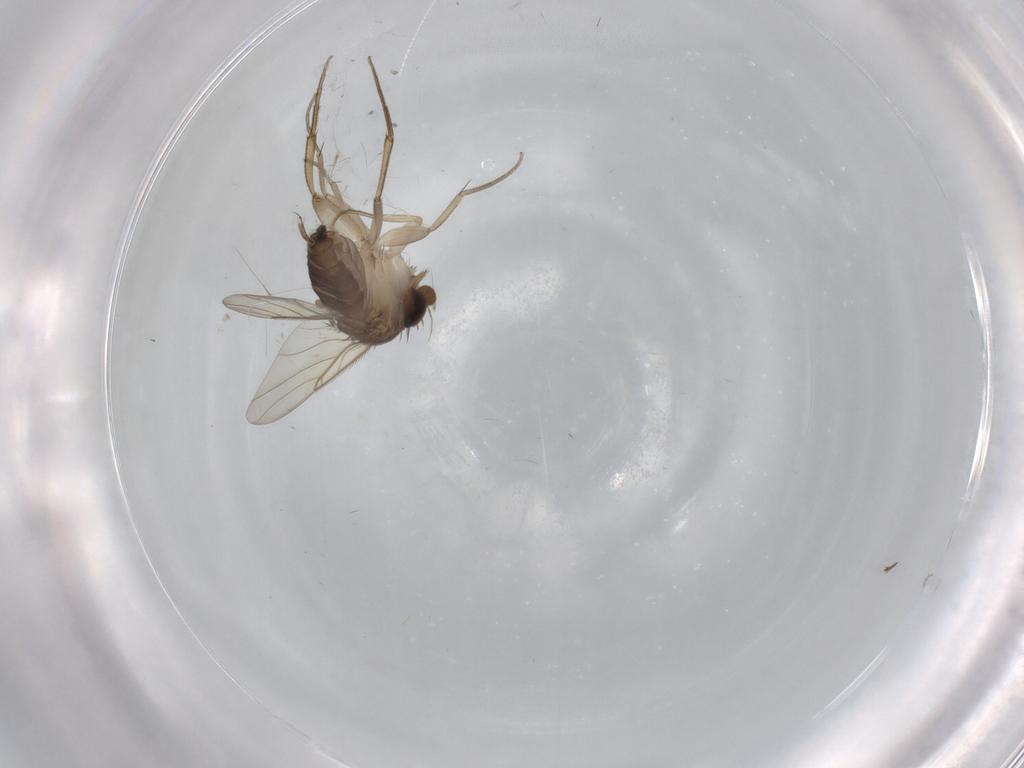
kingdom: Animalia
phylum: Arthropoda
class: Insecta
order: Diptera
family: Phoridae
